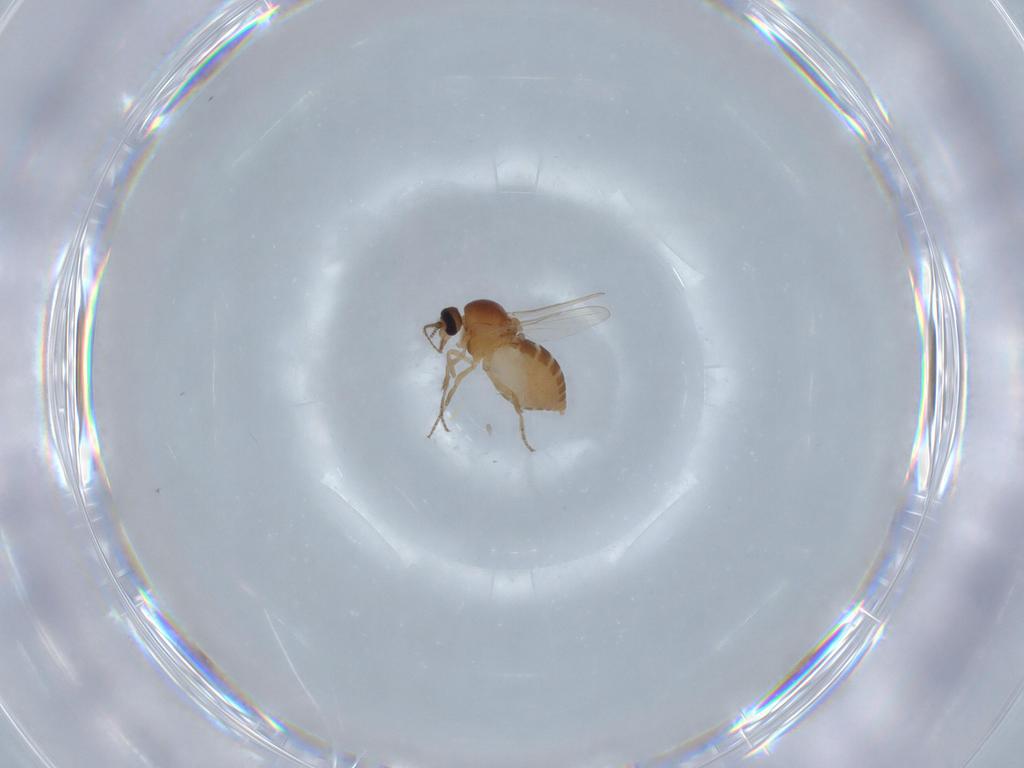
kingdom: Animalia
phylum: Arthropoda
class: Insecta
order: Diptera
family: Ceratopogonidae
